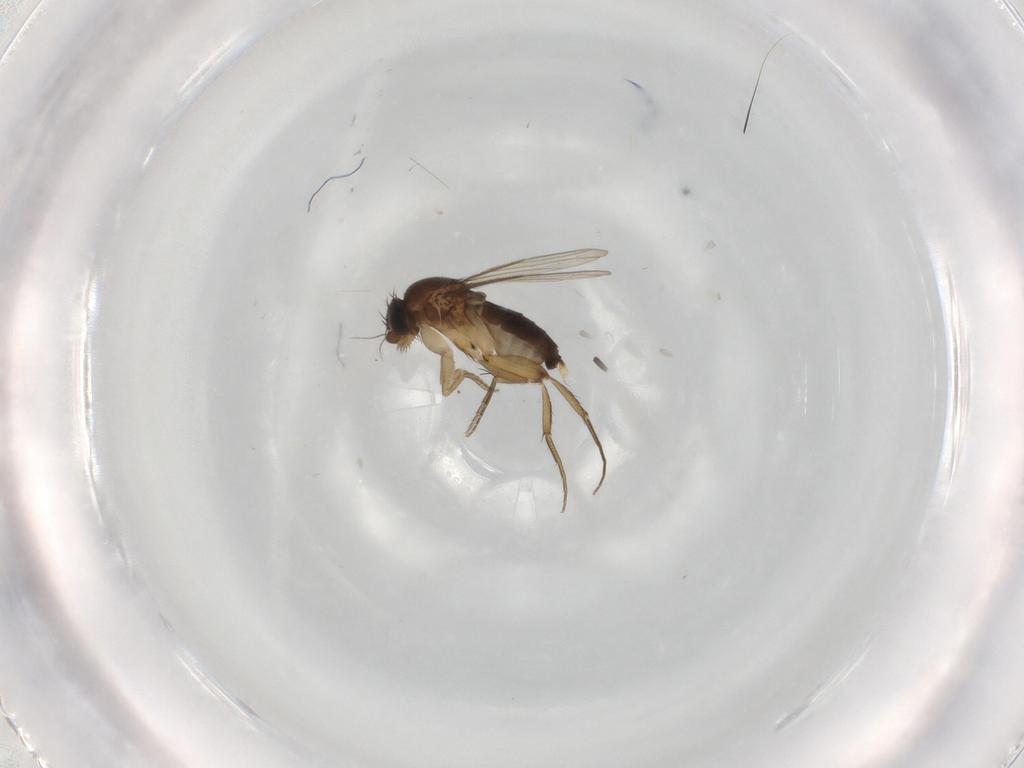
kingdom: Animalia
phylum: Arthropoda
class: Insecta
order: Diptera
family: Phoridae
